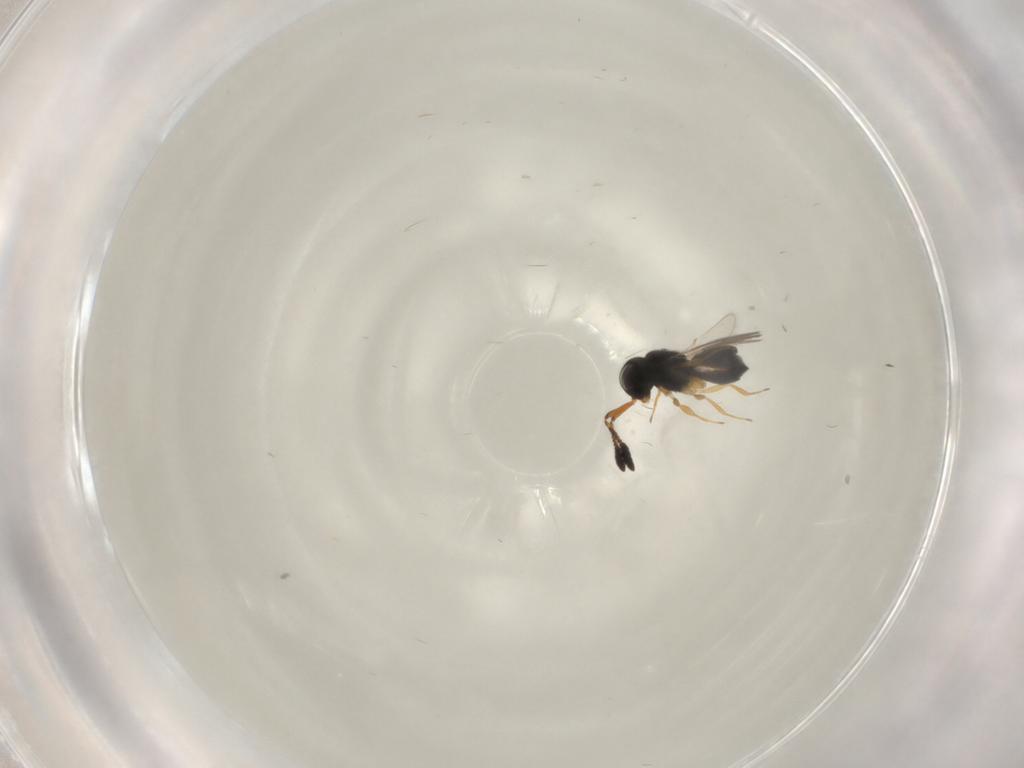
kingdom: Animalia
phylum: Arthropoda
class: Insecta
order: Hymenoptera
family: Scelionidae
